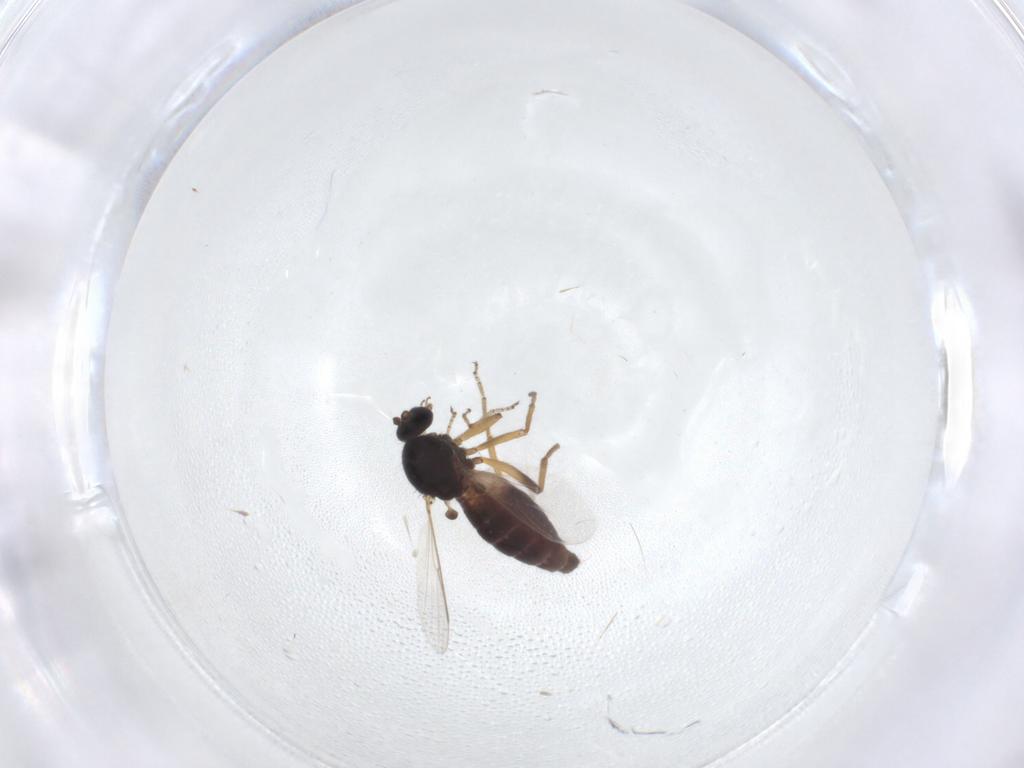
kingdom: Animalia
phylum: Arthropoda
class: Insecta
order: Diptera
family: Ceratopogonidae
